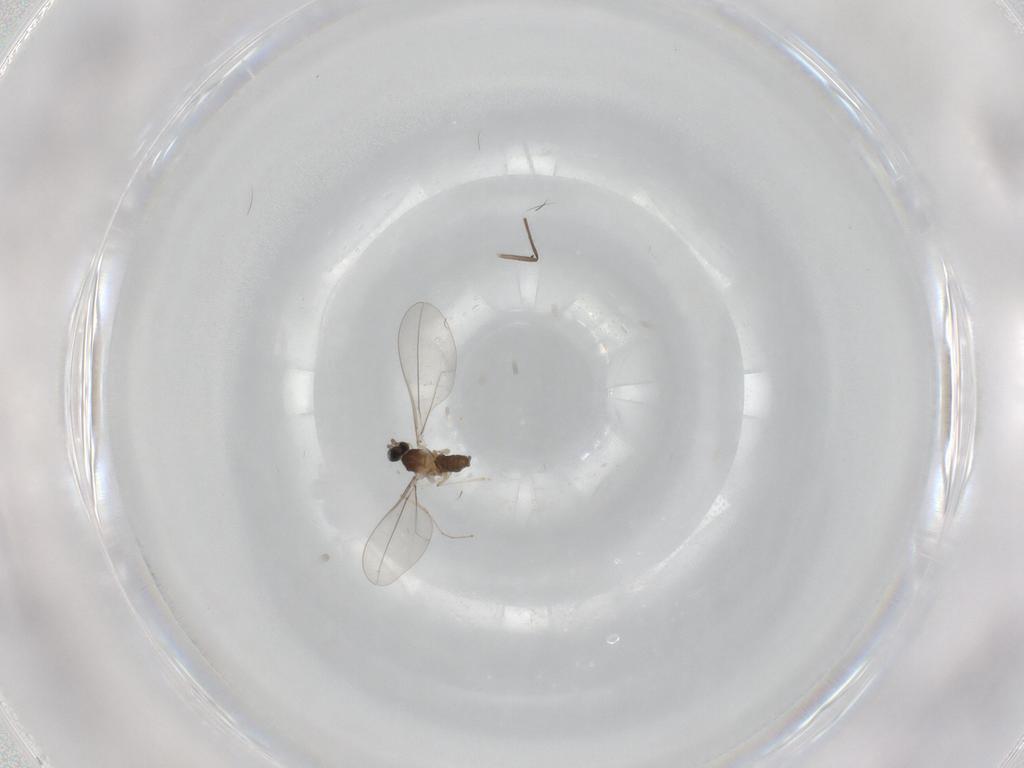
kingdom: Animalia
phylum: Arthropoda
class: Insecta
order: Diptera
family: Cecidomyiidae
